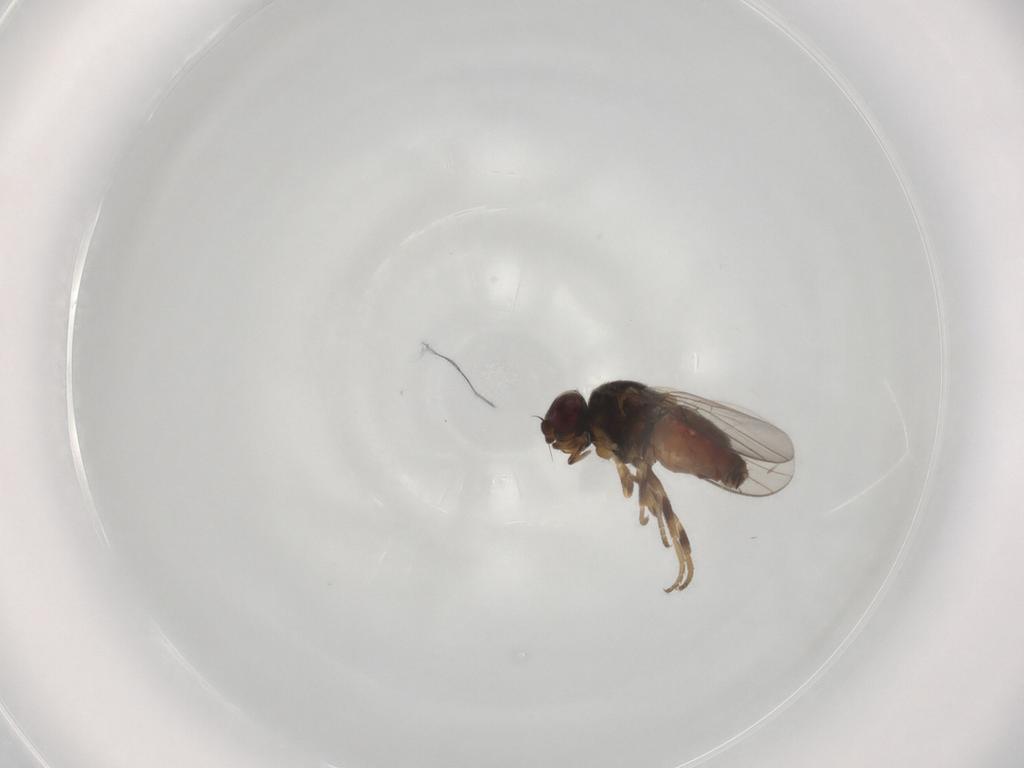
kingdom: Animalia
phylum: Arthropoda
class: Insecta
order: Diptera
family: Chloropidae
